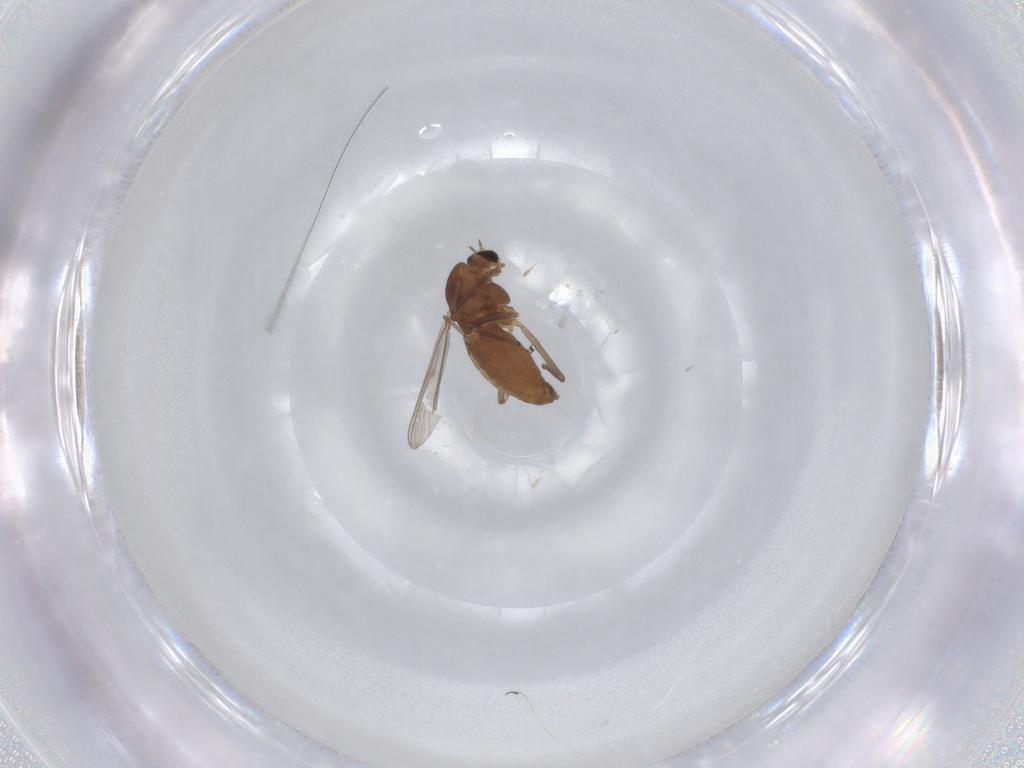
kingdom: Animalia
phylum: Arthropoda
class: Insecta
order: Diptera
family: Chironomidae
